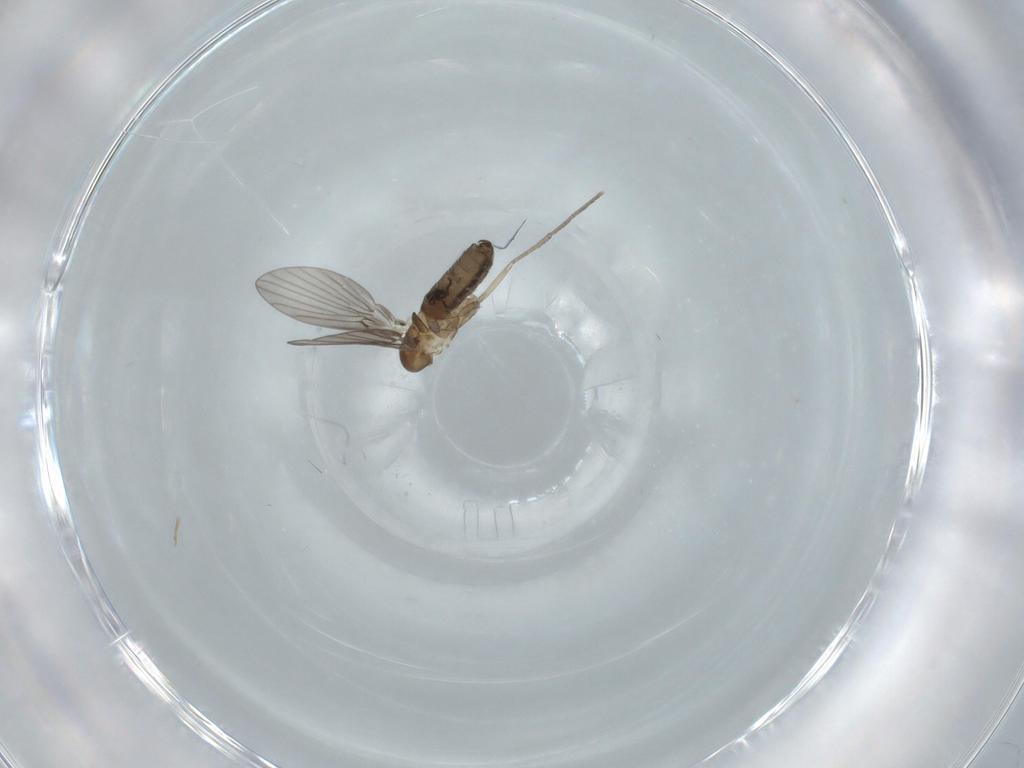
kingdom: Animalia
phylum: Arthropoda
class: Insecta
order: Diptera
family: Psychodidae
